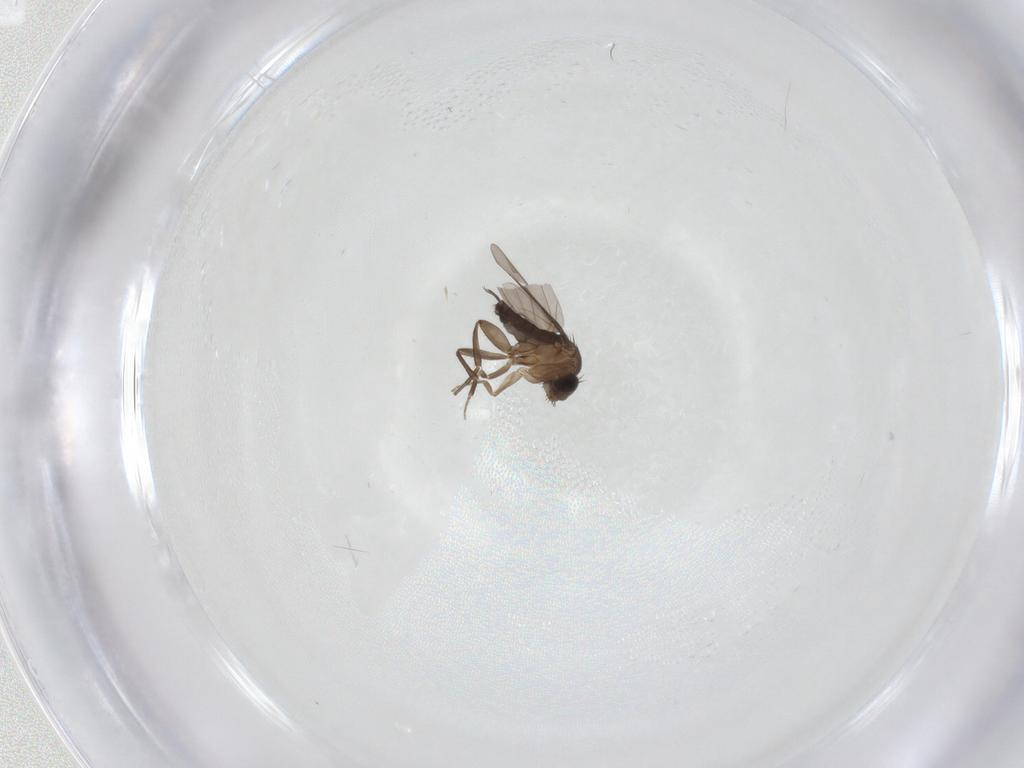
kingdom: Animalia
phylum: Arthropoda
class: Insecta
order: Diptera
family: Phoridae
